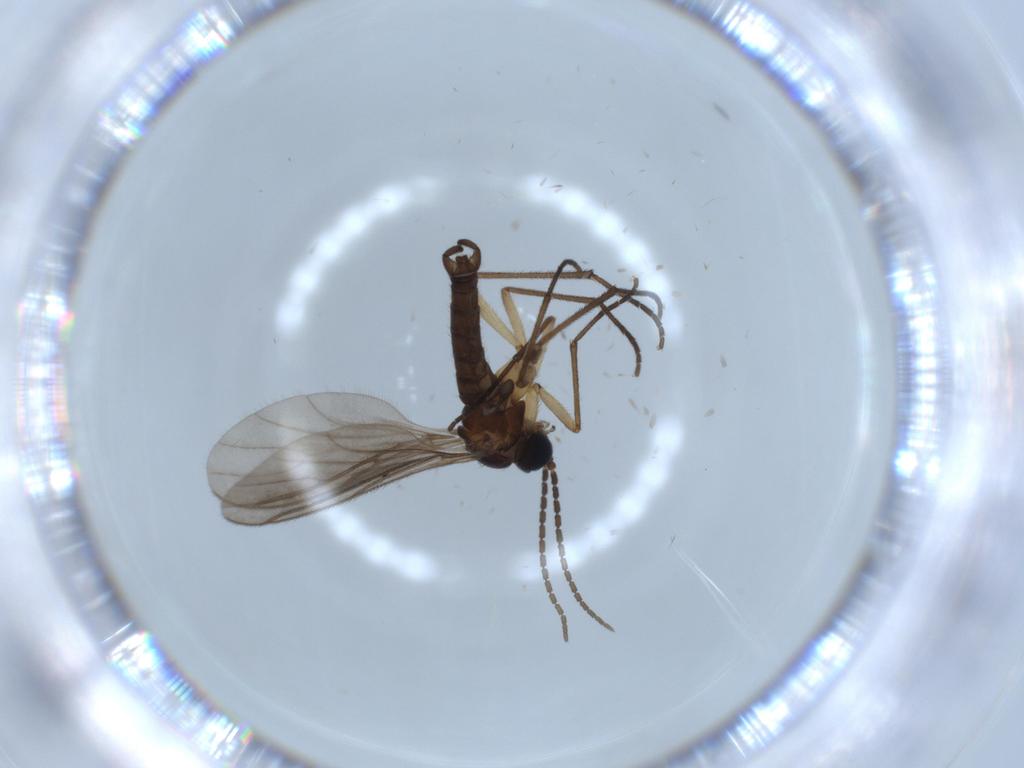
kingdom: Animalia
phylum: Arthropoda
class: Insecta
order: Diptera
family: Sciaridae
